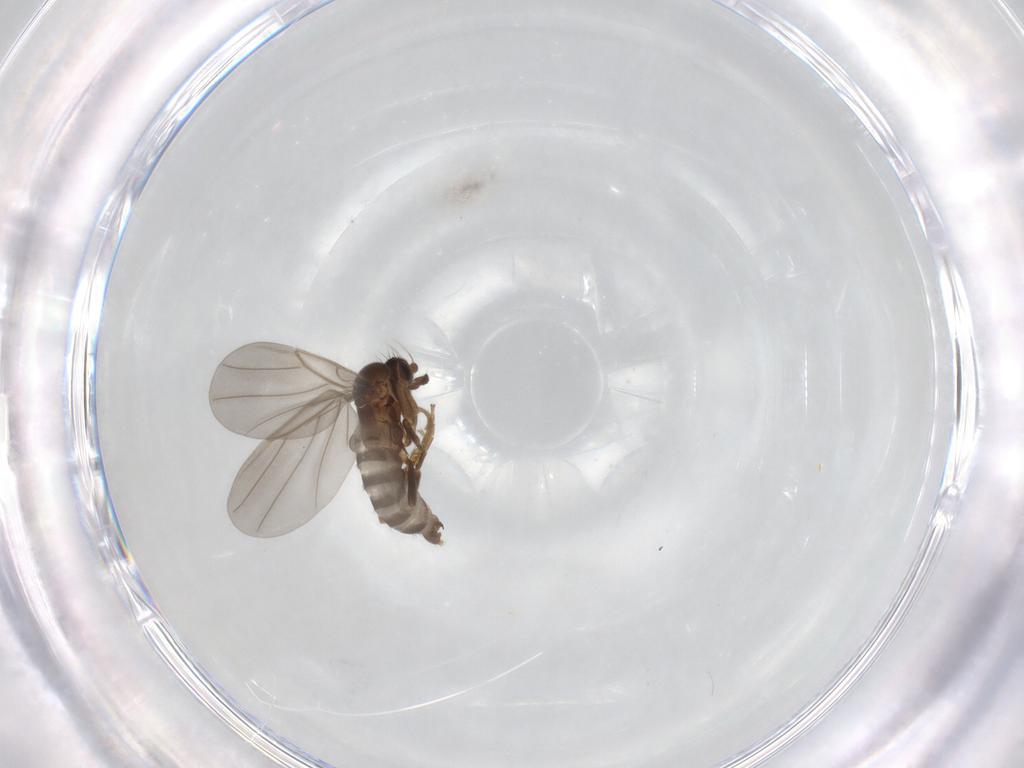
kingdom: Animalia
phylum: Arthropoda
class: Insecta
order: Diptera
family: Phoridae
